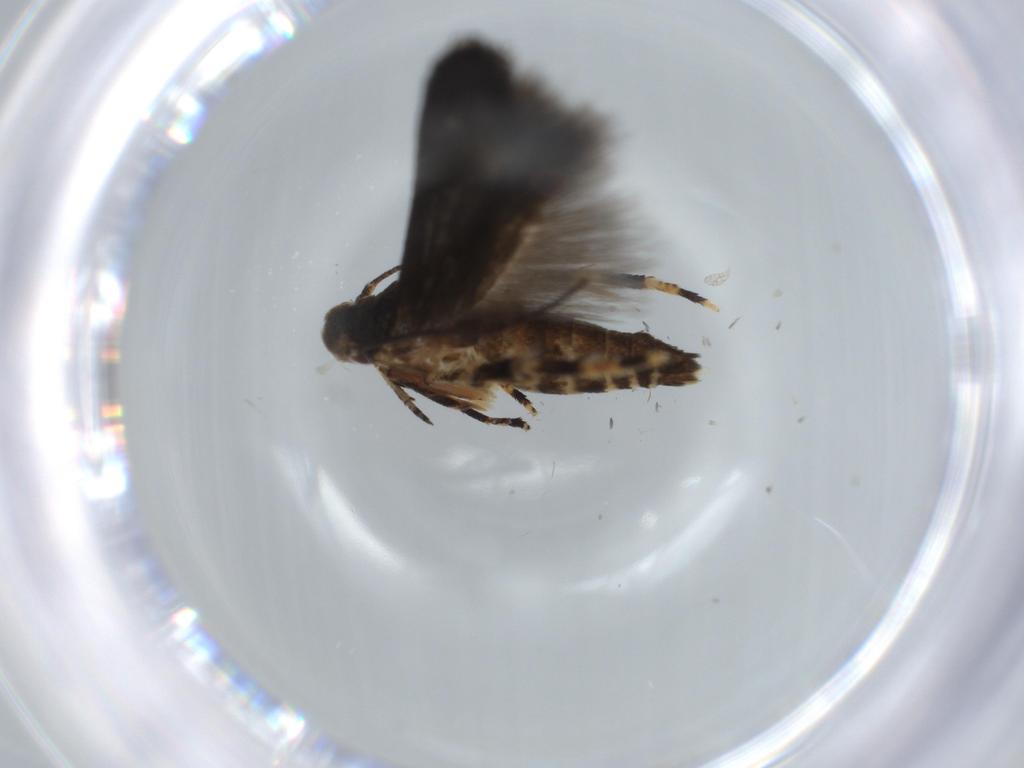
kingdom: Animalia
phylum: Arthropoda
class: Insecta
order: Lepidoptera
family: Momphidae
